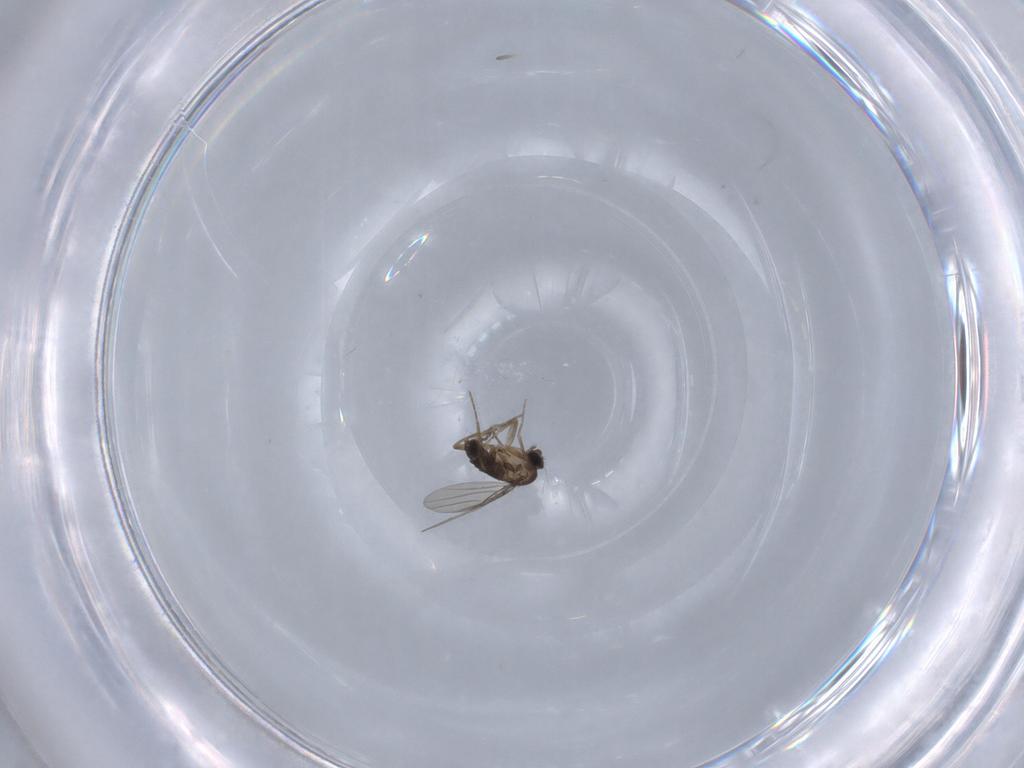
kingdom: Animalia
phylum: Arthropoda
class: Insecta
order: Diptera
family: Phoridae
